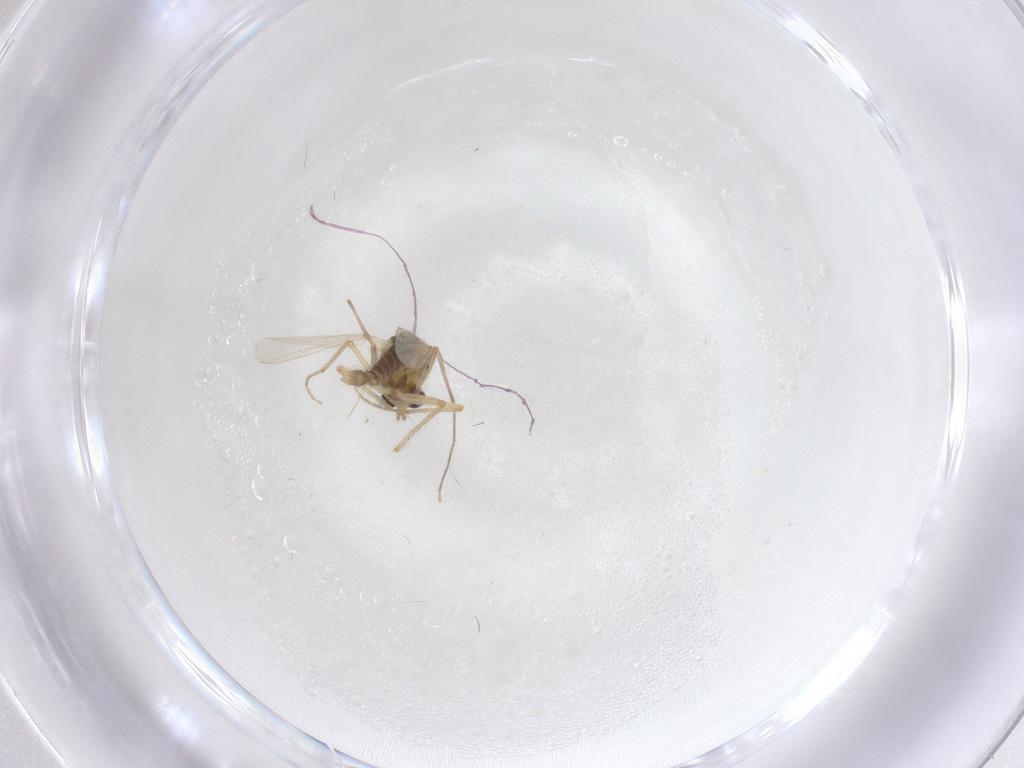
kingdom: Animalia
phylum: Arthropoda
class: Insecta
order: Diptera
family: Chironomidae
